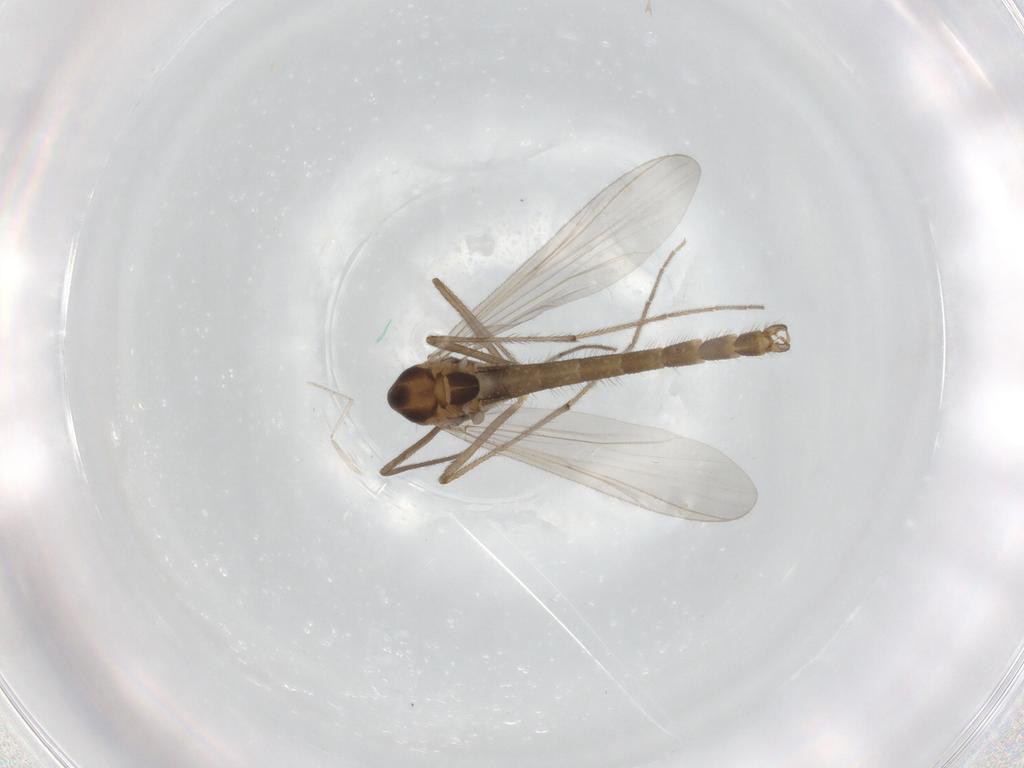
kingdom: Animalia
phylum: Arthropoda
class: Insecta
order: Diptera
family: Chironomidae
